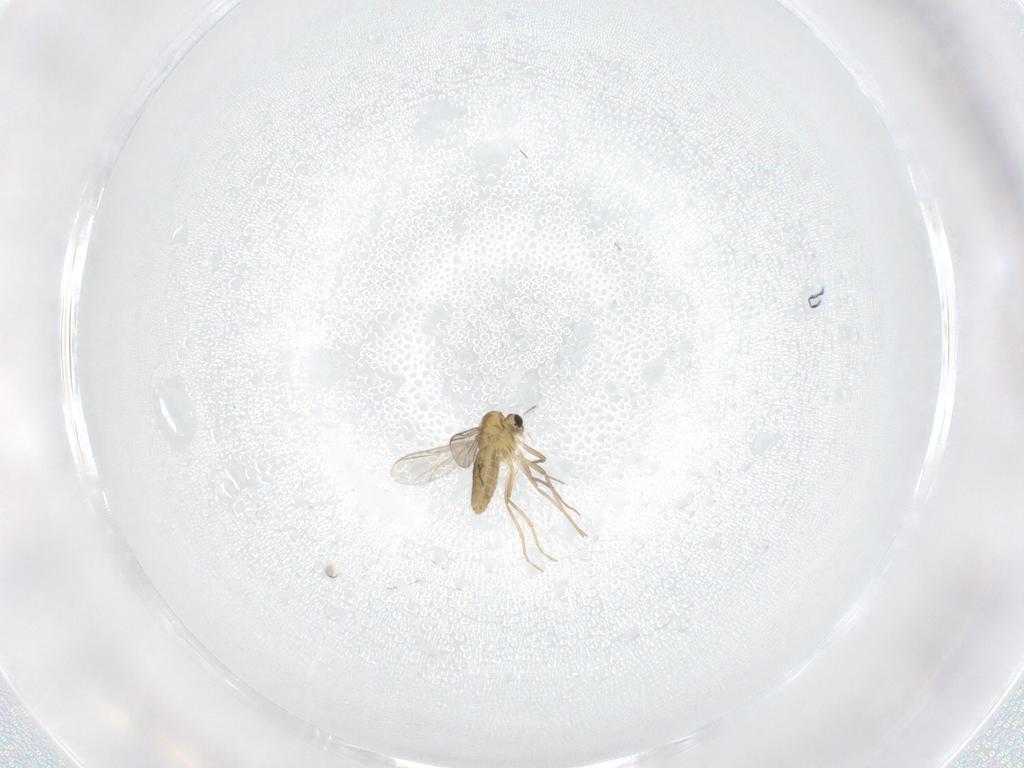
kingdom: Animalia
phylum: Arthropoda
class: Insecta
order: Diptera
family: Chironomidae
